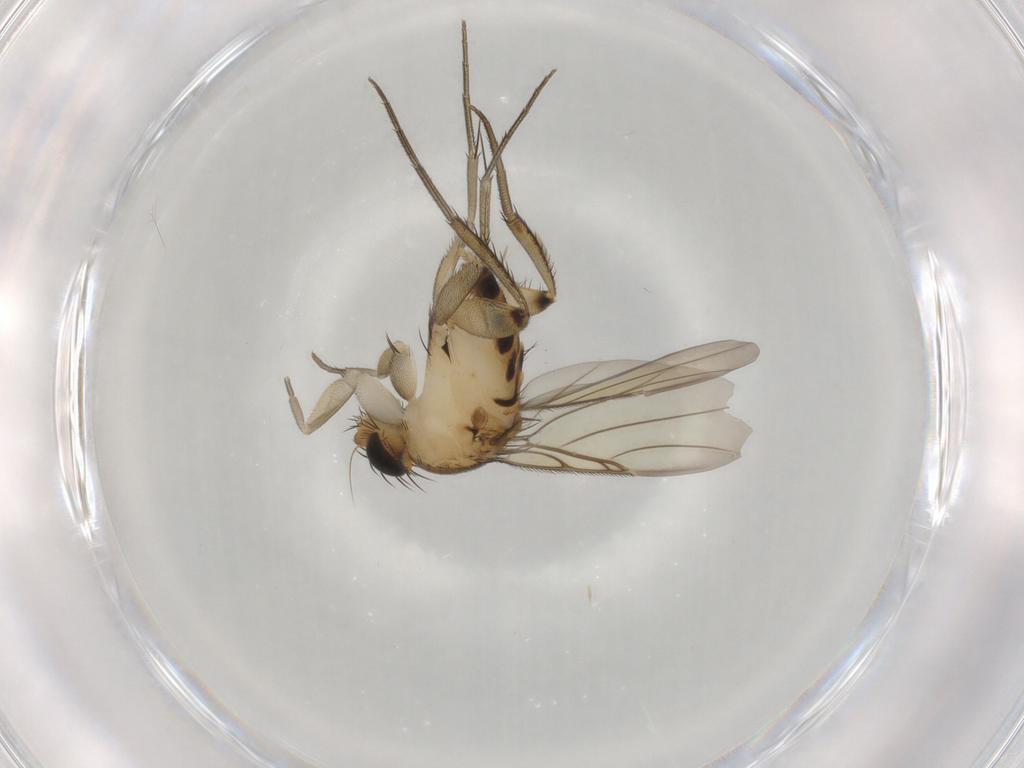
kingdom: Animalia
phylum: Arthropoda
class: Insecta
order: Diptera
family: Phoridae
